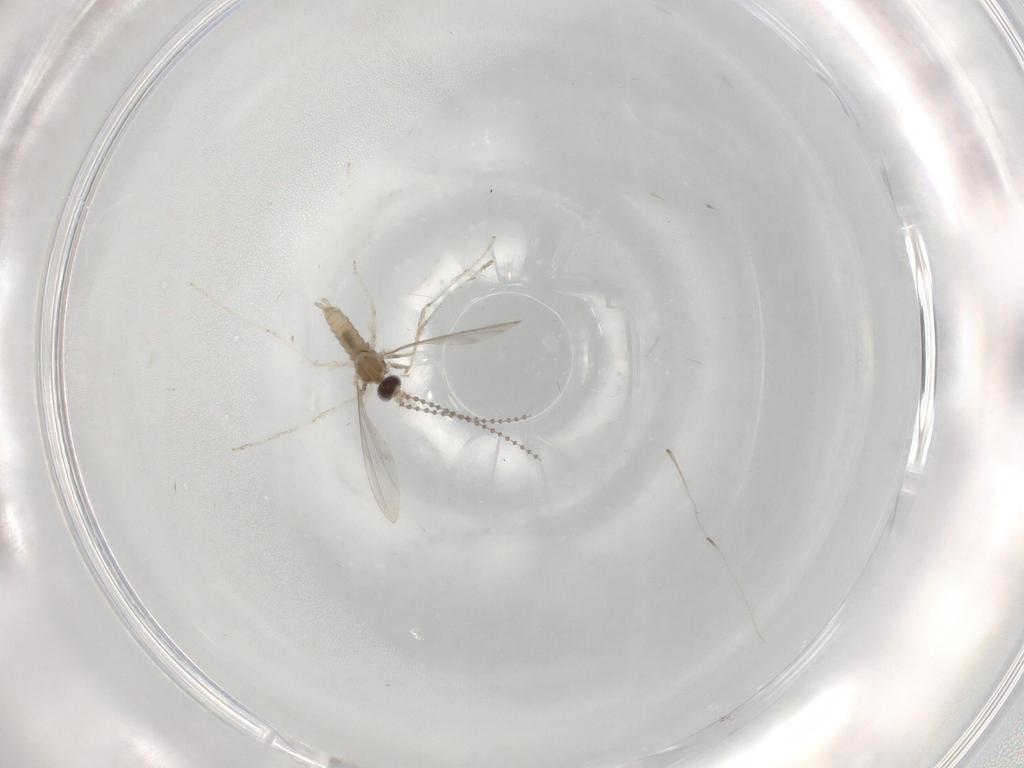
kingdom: Animalia
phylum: Arthropoda
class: Insecta
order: Diptera
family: Cecidomyiidae
